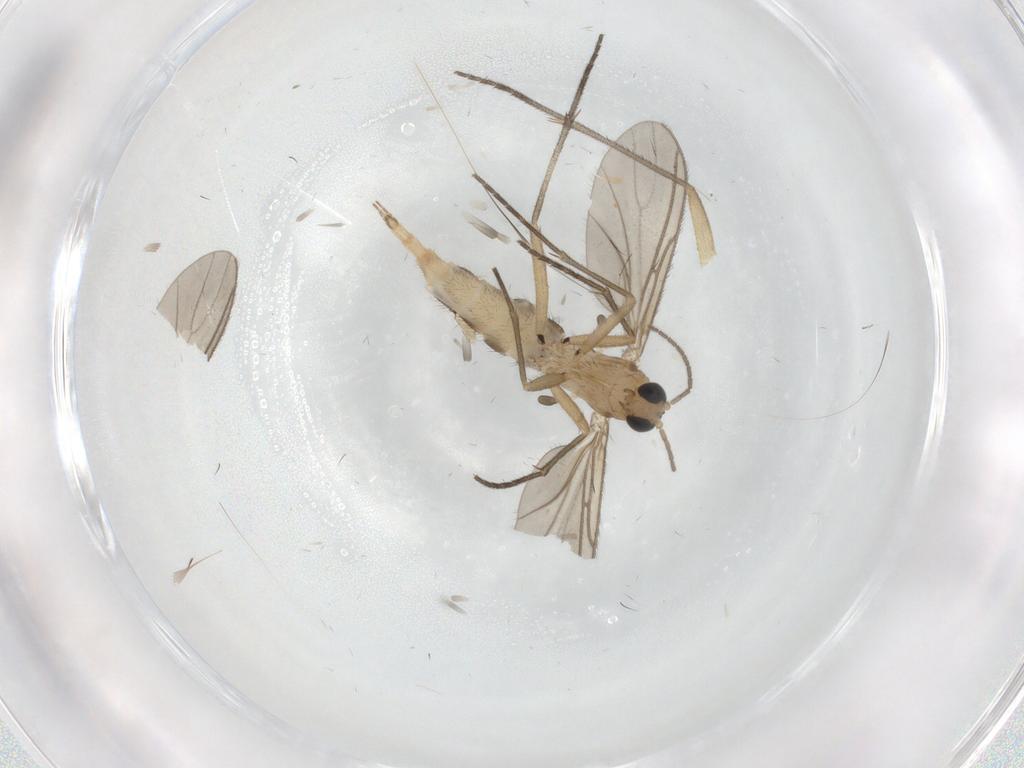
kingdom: Animalia
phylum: Arthropoda
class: Insecta
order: Diptera
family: Sciaridae
